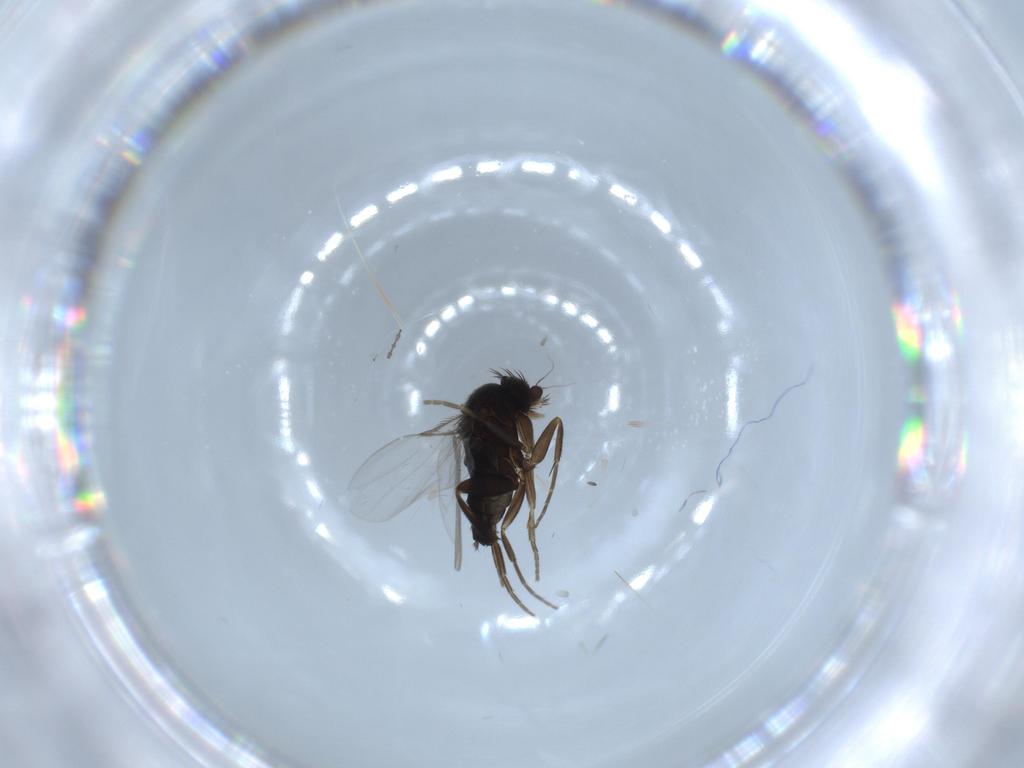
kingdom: Animalia
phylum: Arthropoda
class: Insecta
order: Diptera
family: Phoridae
